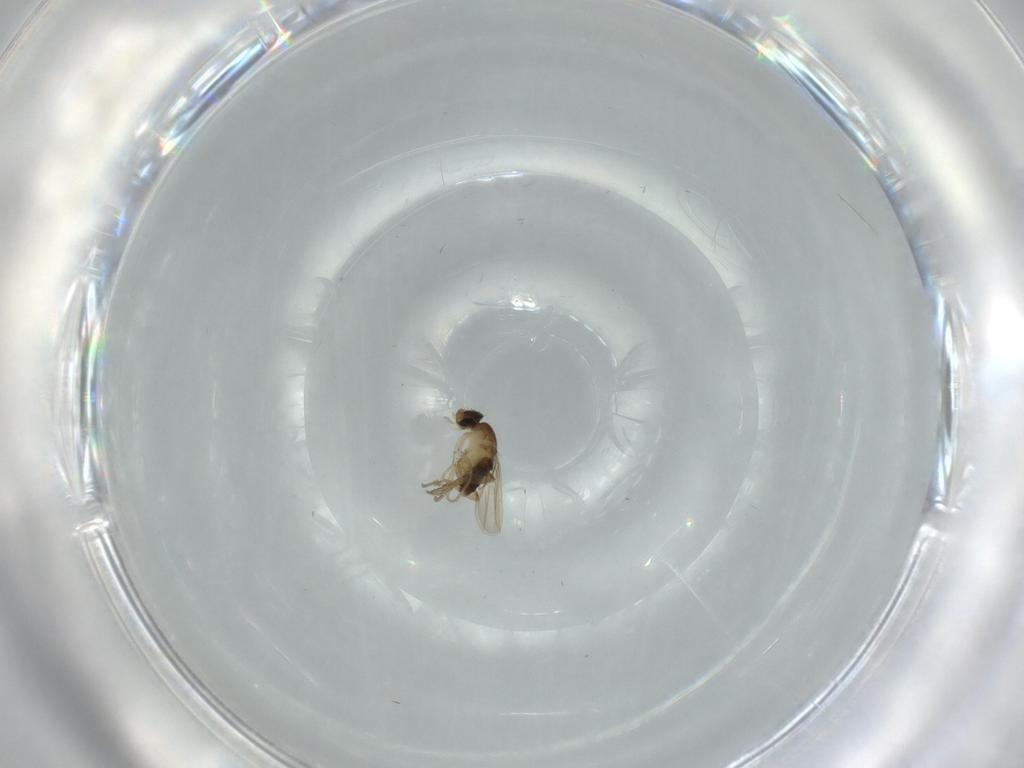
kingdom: Animalia
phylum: Arthropoda
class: Insecta
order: Diptera
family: Phoridae
